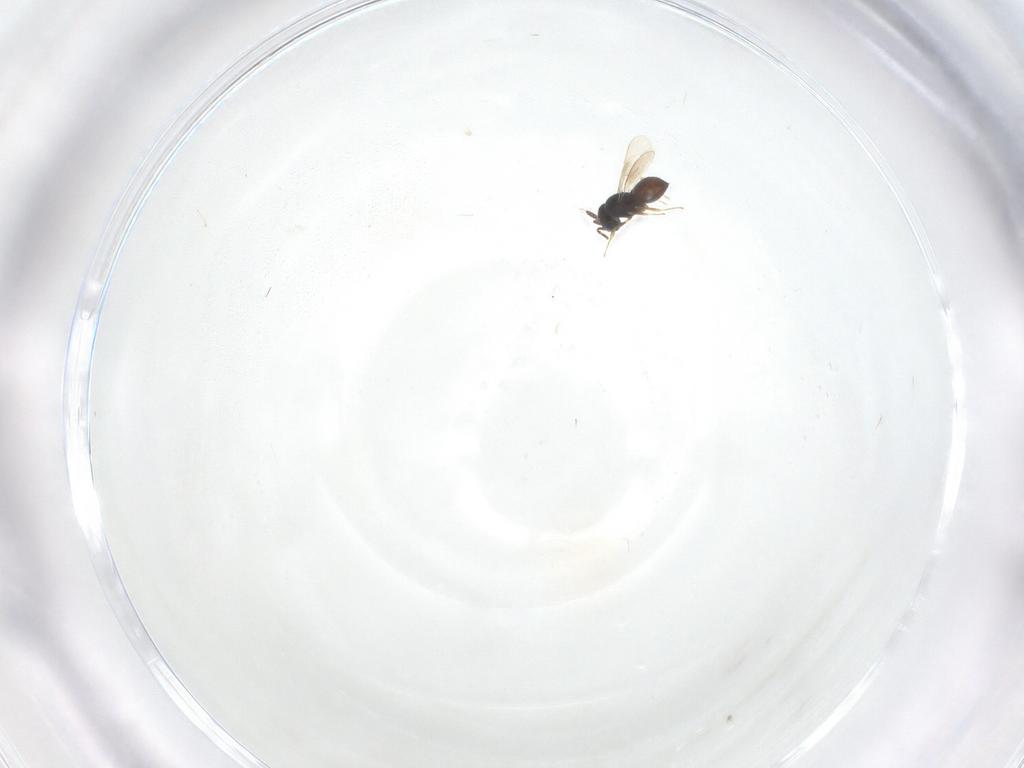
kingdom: Animalia
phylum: Arthropoda
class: Insecta
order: Hymenoptera
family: Scelionidae
